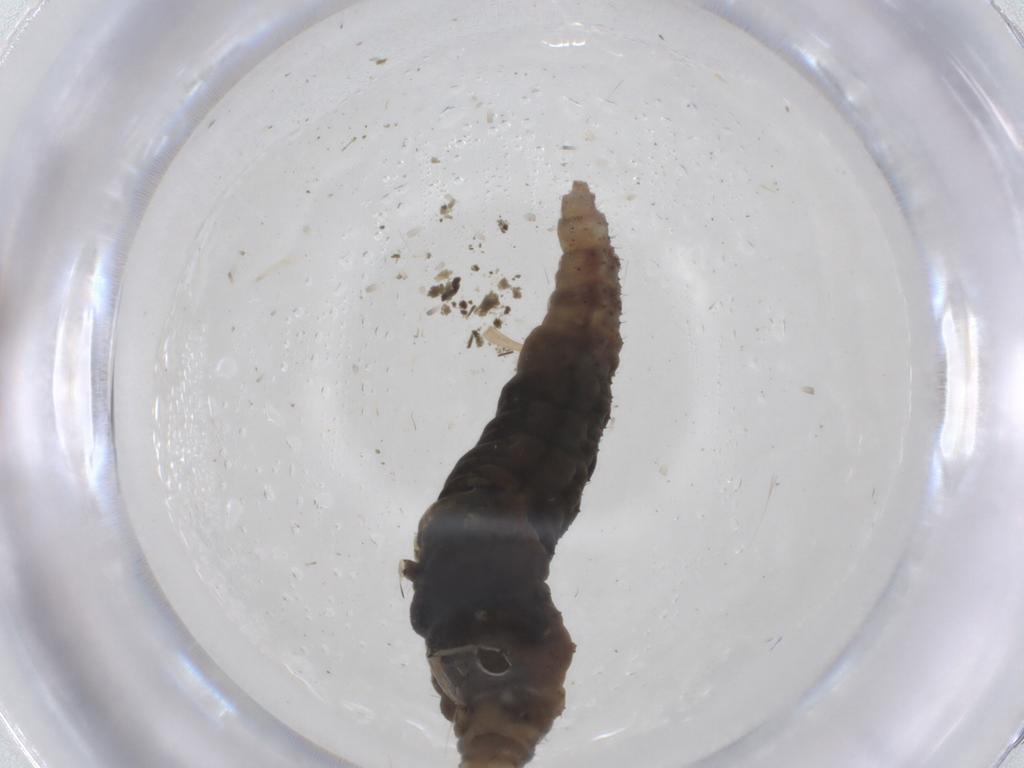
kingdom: Animalia
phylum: Arthropoda
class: Insecta
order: Neuroptera
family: Hemerobiidae
